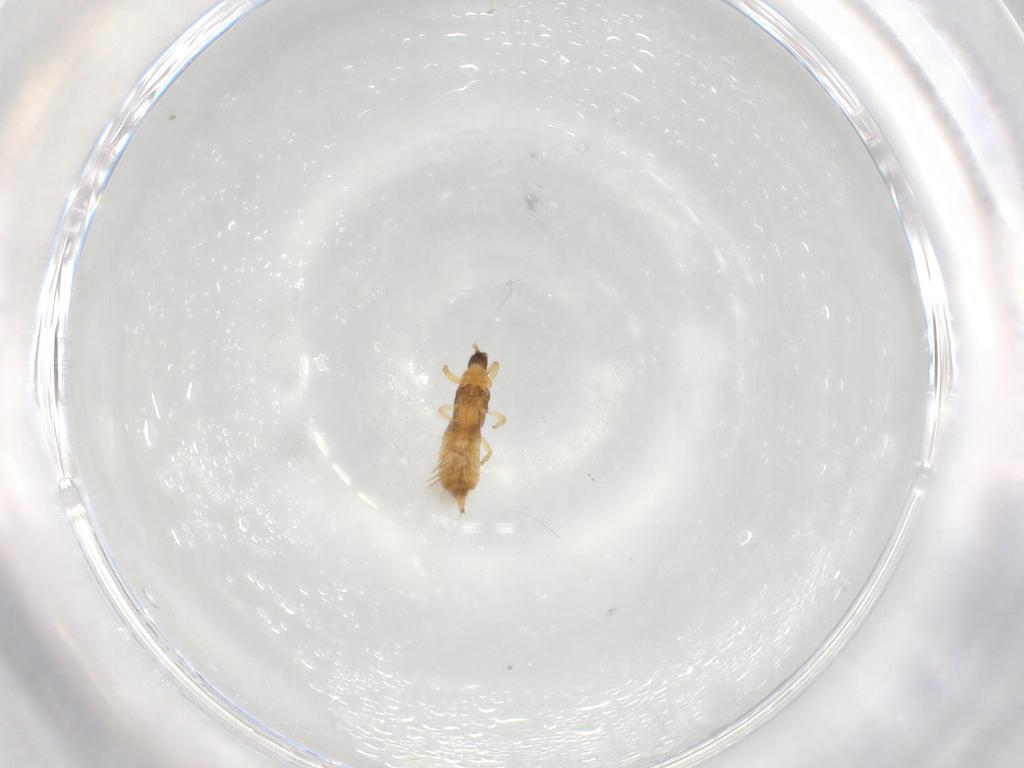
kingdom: Animalia
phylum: Arthropoda
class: Insecta
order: Thysanoptera
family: Phlaeothripidae
